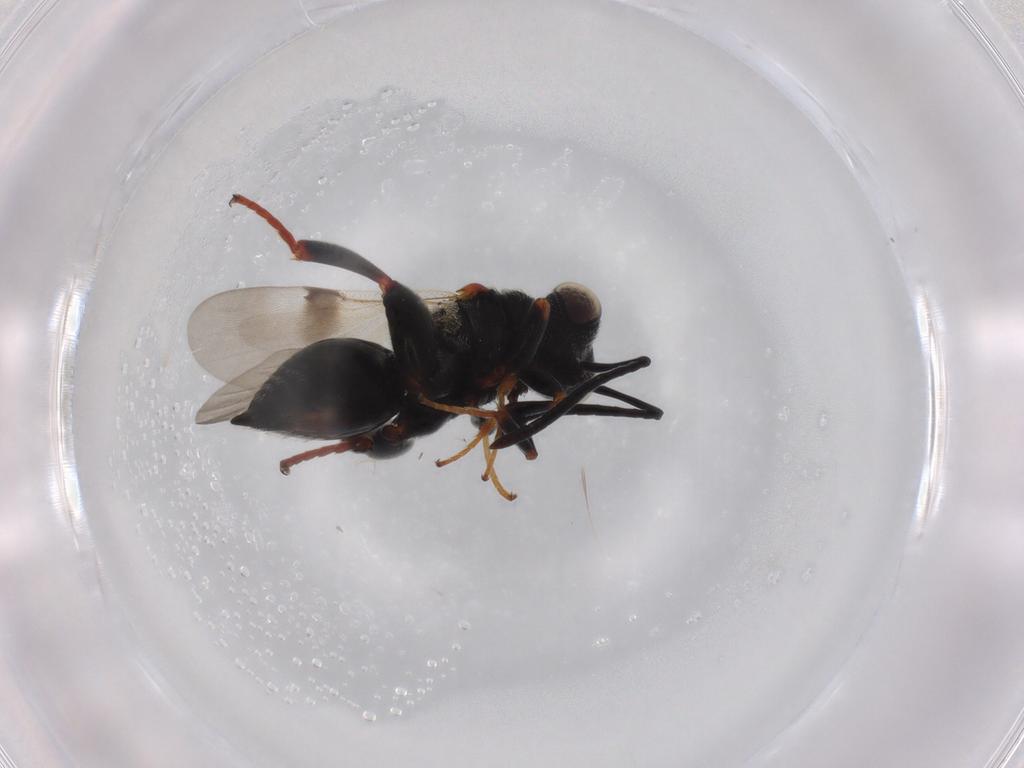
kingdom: Animalia
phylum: Arthropoda
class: Insecta
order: Hymenoptera
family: Chalcididae
